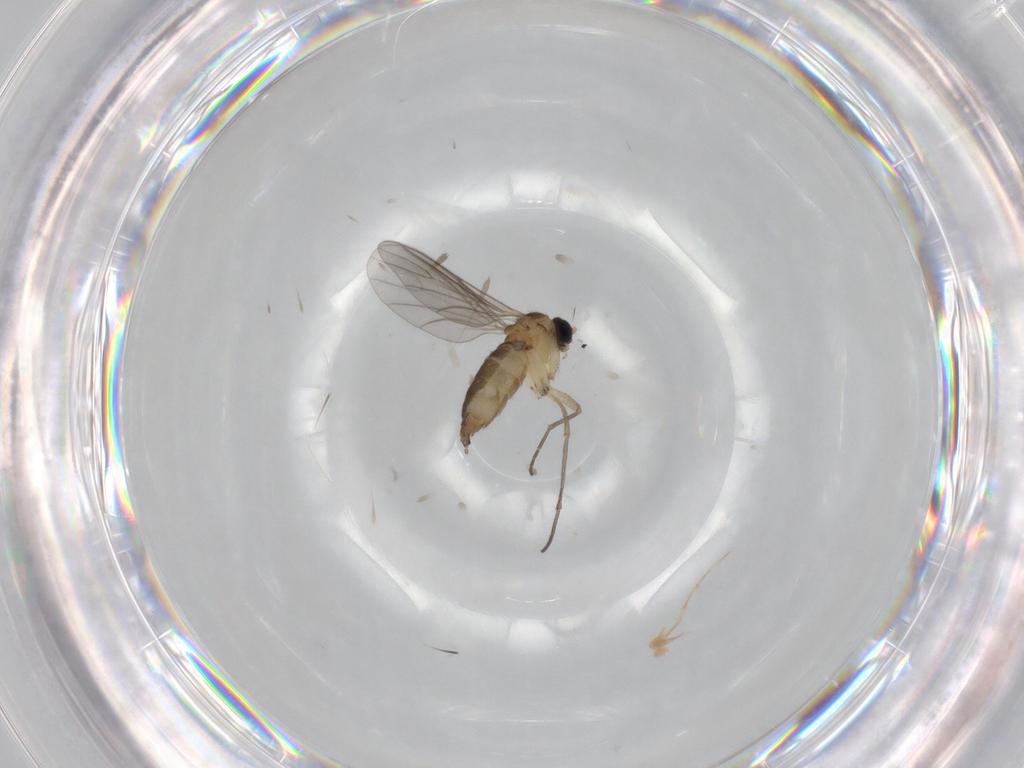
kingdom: Animalia
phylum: Arthropoda
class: Insecta
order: Diptera
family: Sciaridae
